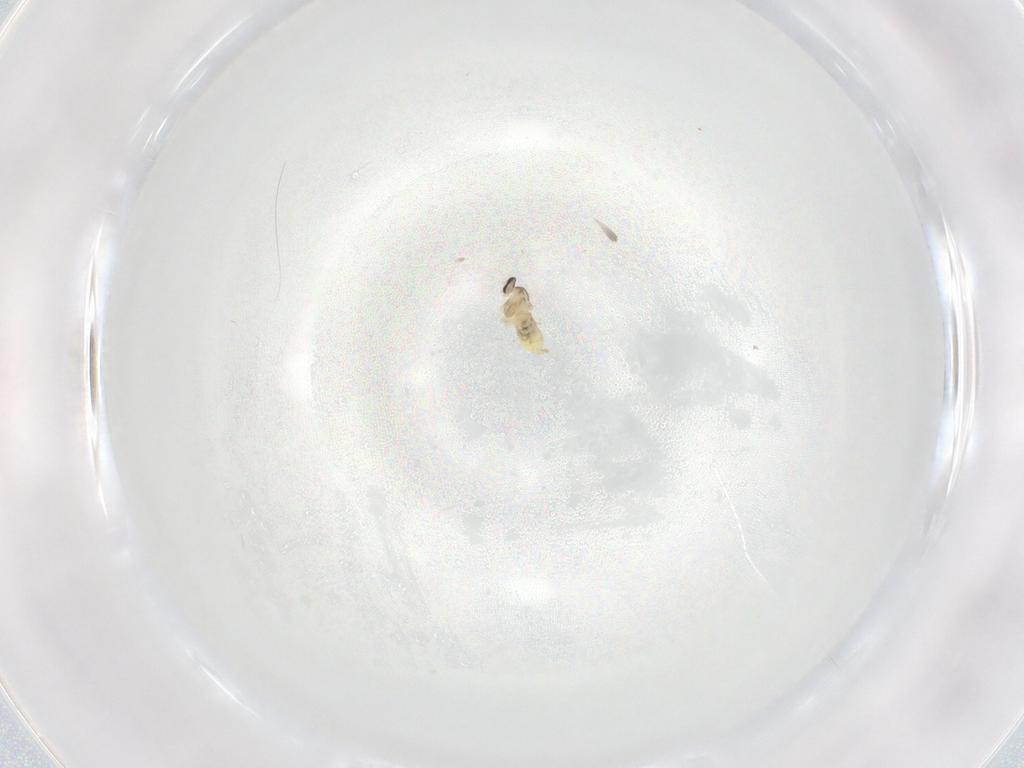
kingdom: Animalia
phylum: Arthropoda
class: Insecta
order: Diptera
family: Cecidomyiidae
